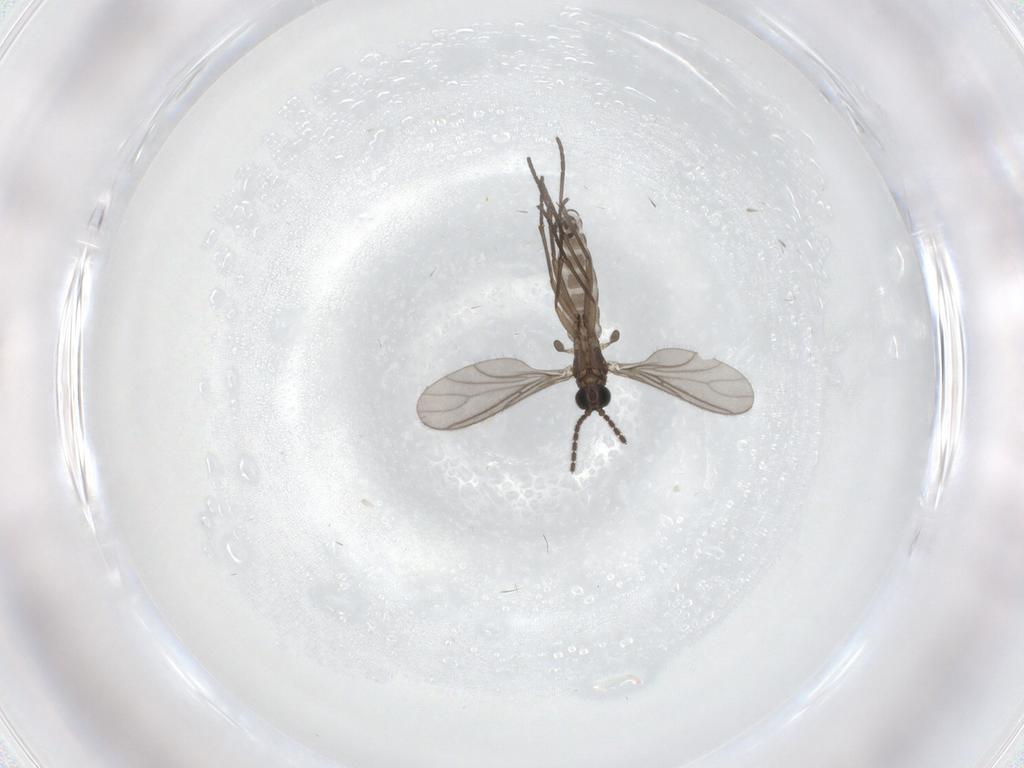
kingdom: Animalia
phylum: Arthropoda
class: Insecta
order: Diptera
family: Sciaridae
